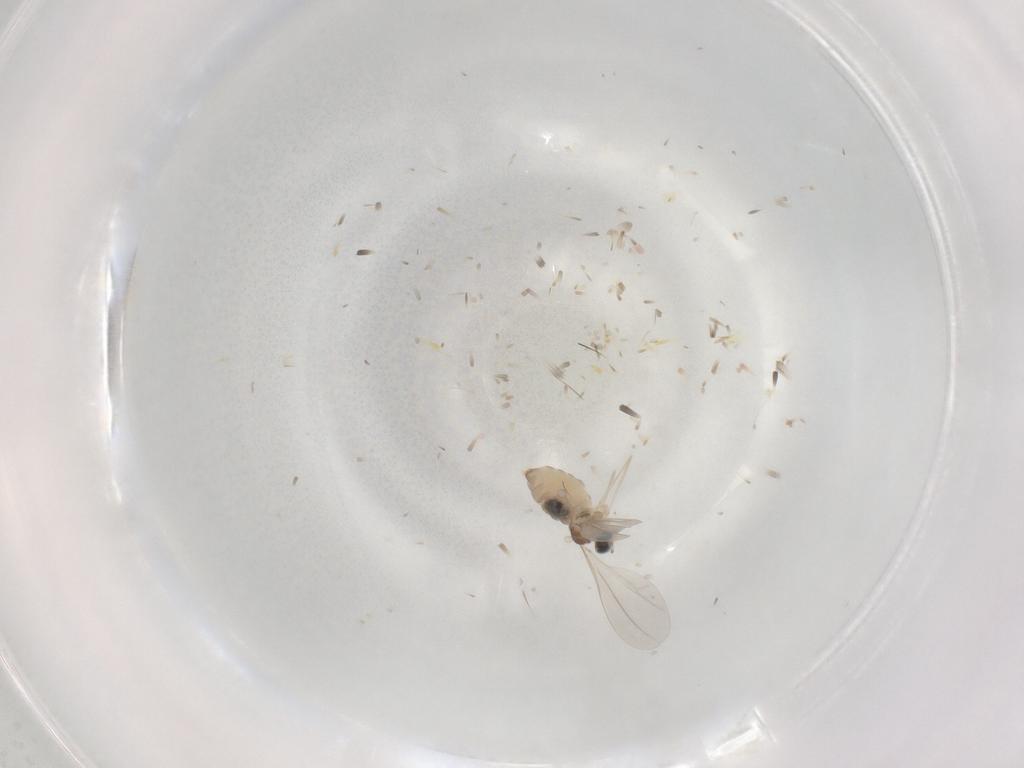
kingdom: Animalia
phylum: Arthropoda
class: Insecta
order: Diptera
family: Cecidomyiidae
